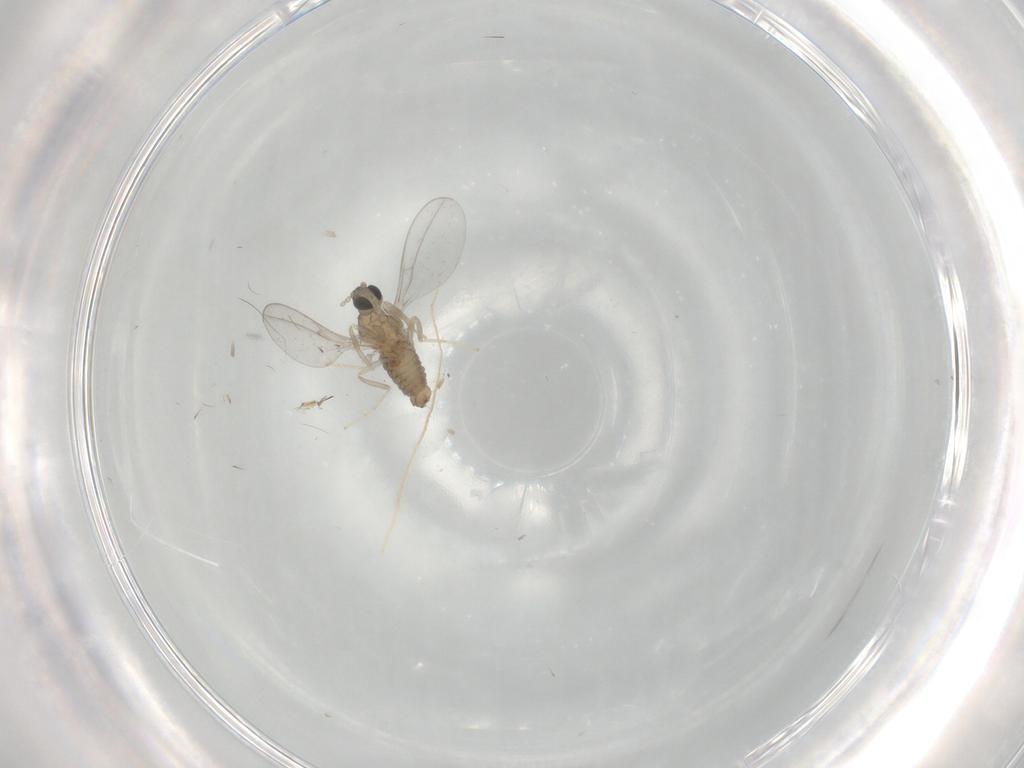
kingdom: Animalia
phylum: Arthropoda
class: Insecta
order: Diptera
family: Cecidomyiidae
